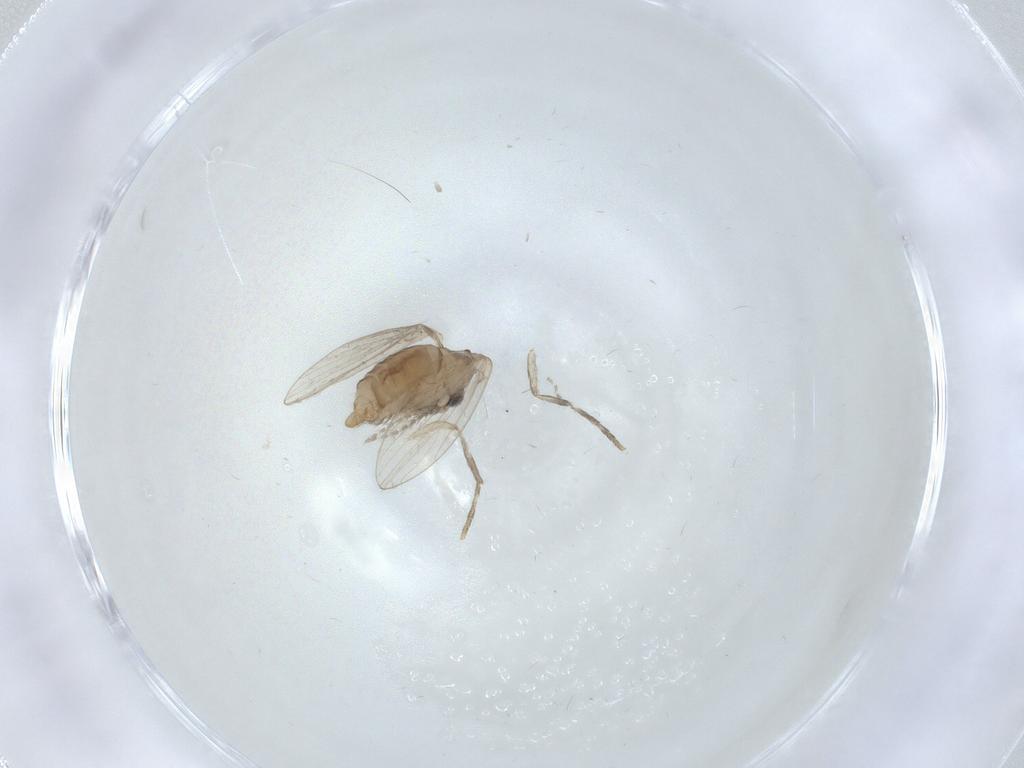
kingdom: Animalia
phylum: Arthropoda
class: Insecta
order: Diptera
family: Psychodidae
